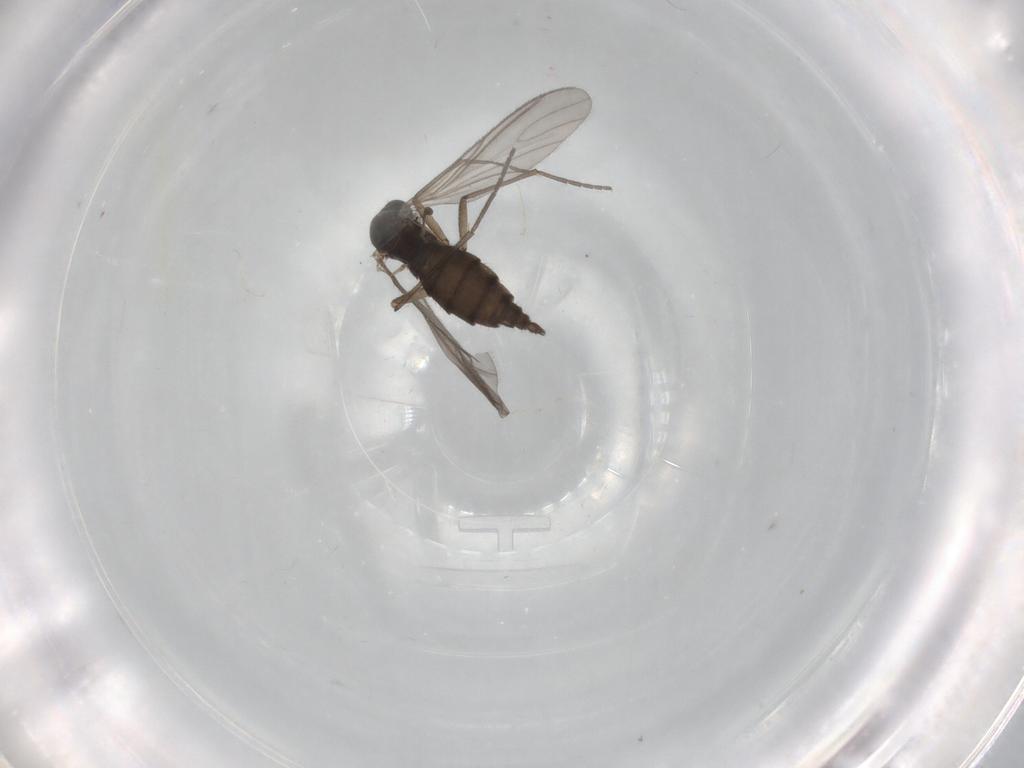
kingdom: Animalia
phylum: Arthropoda
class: Insecta
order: Diptera
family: Sciaridae
